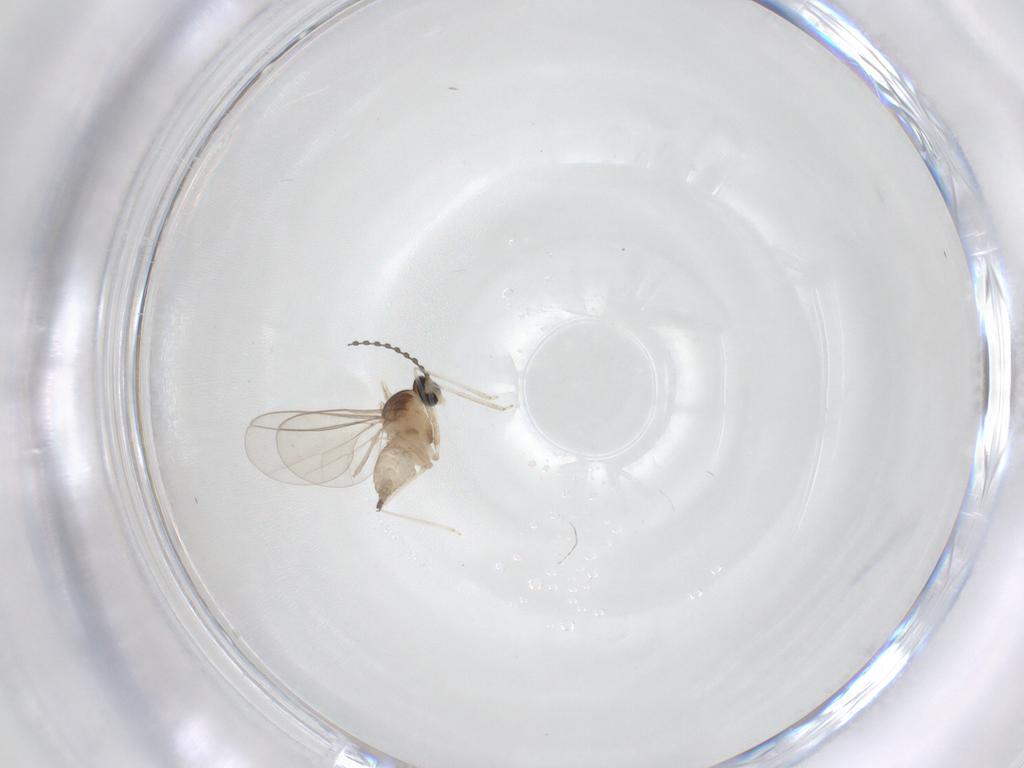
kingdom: Animalia
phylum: Arthropoda
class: Insecta
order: Diptera
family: Cecidomyiidae
